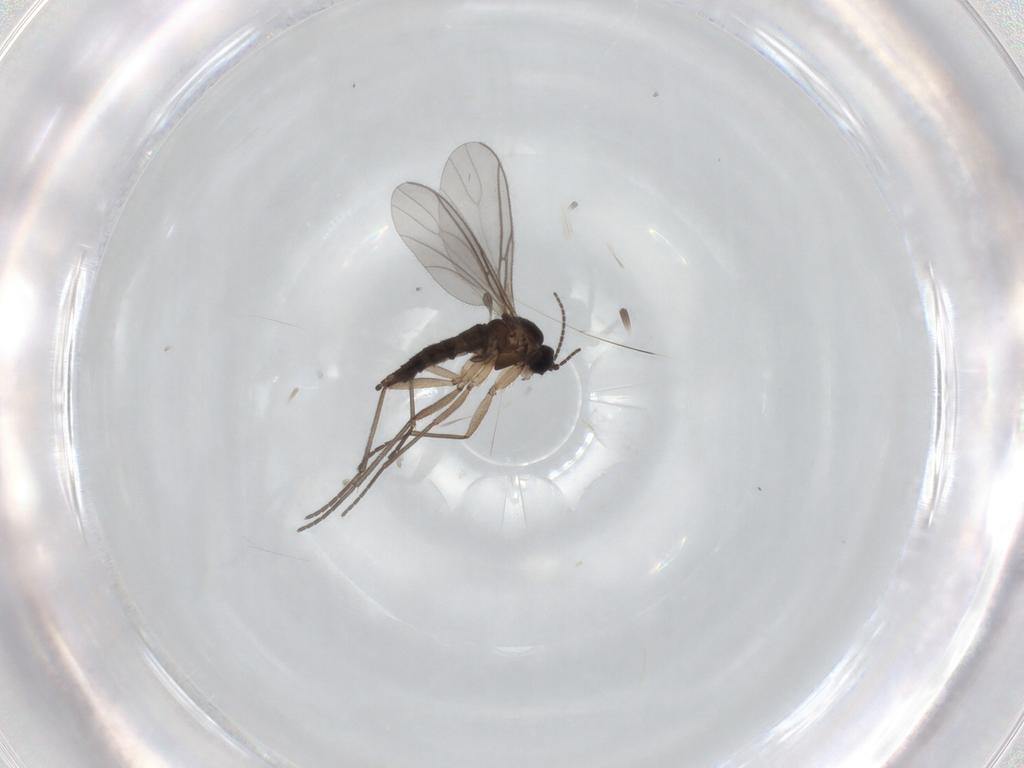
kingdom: Animalia
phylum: Arthropoda
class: Insecta
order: Diptera
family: Sciaridae
